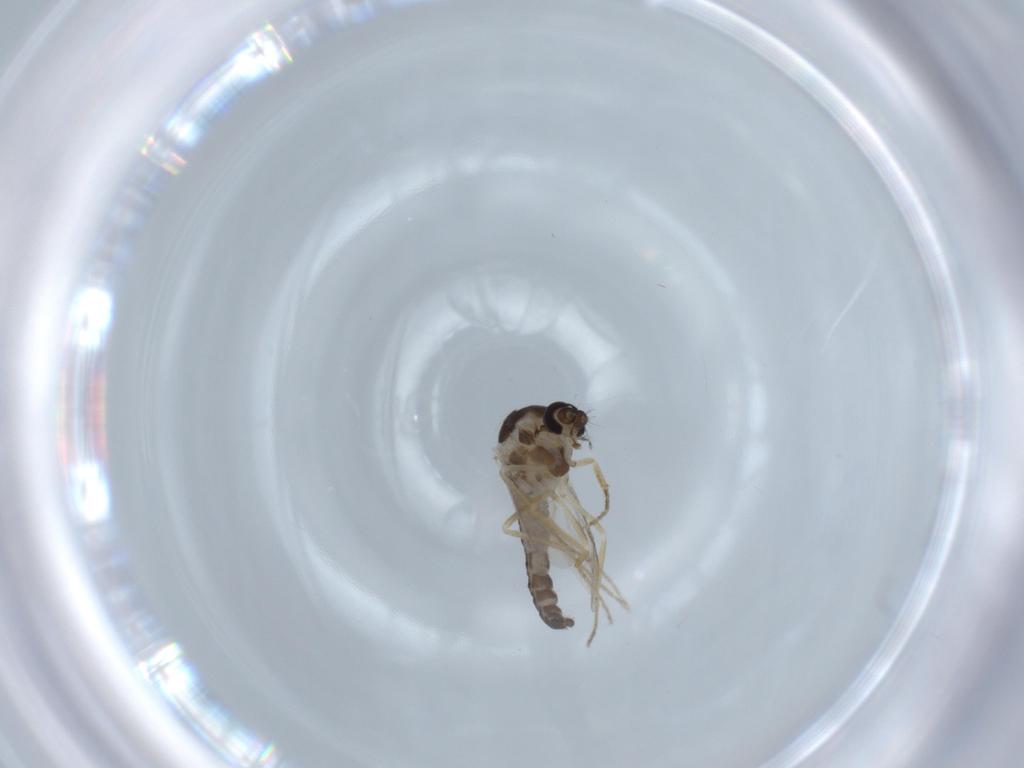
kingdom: Animalia
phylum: Arthropoda
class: Insecta
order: Diptera
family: Ceratopogonidae
